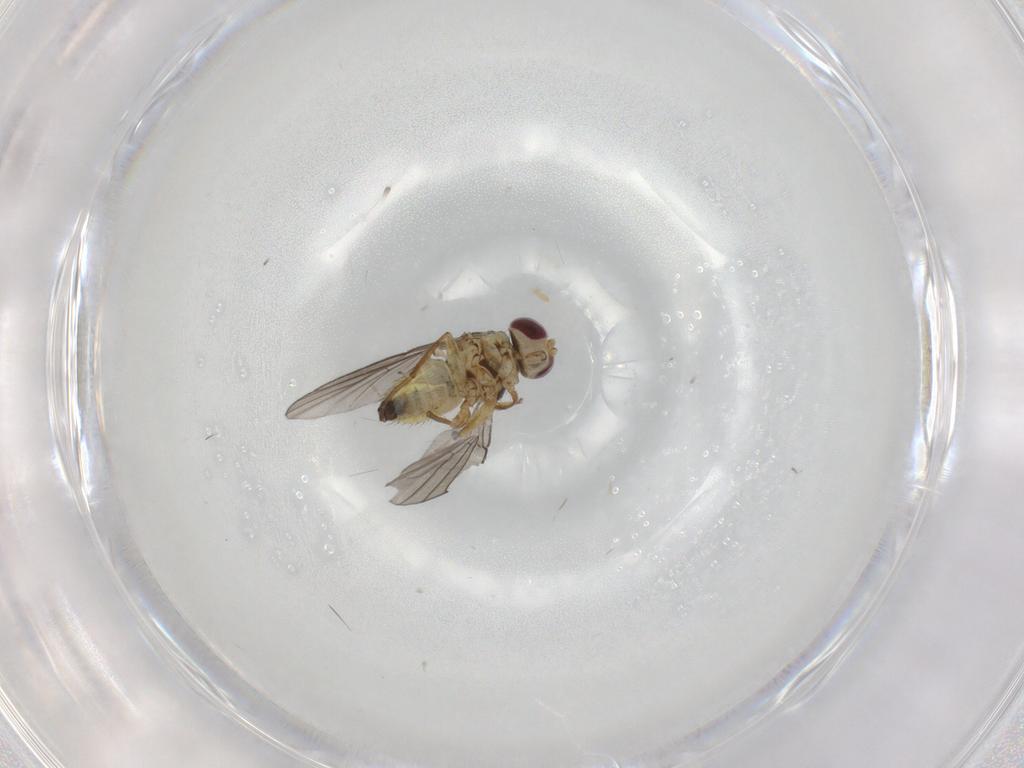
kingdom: Animalia
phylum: Arthropoda
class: Insecta
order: Diptera
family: Agromyzidae
